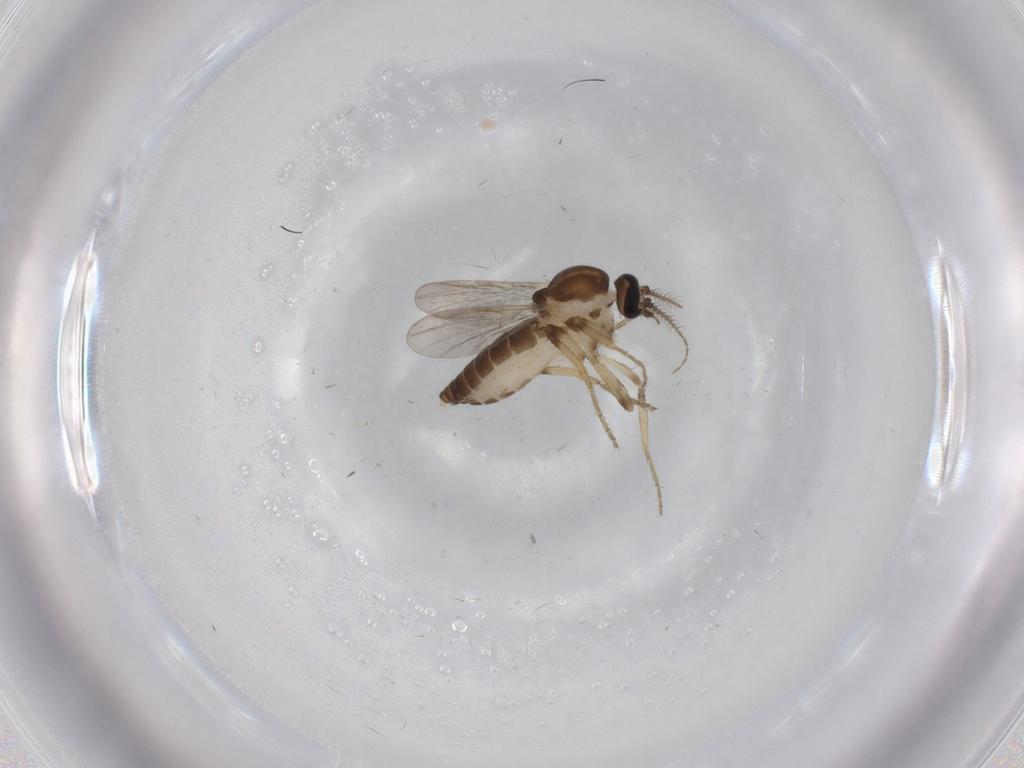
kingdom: Animalia
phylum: Arthropoda
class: Insecta
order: Diptera
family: Ceratopogonidae
